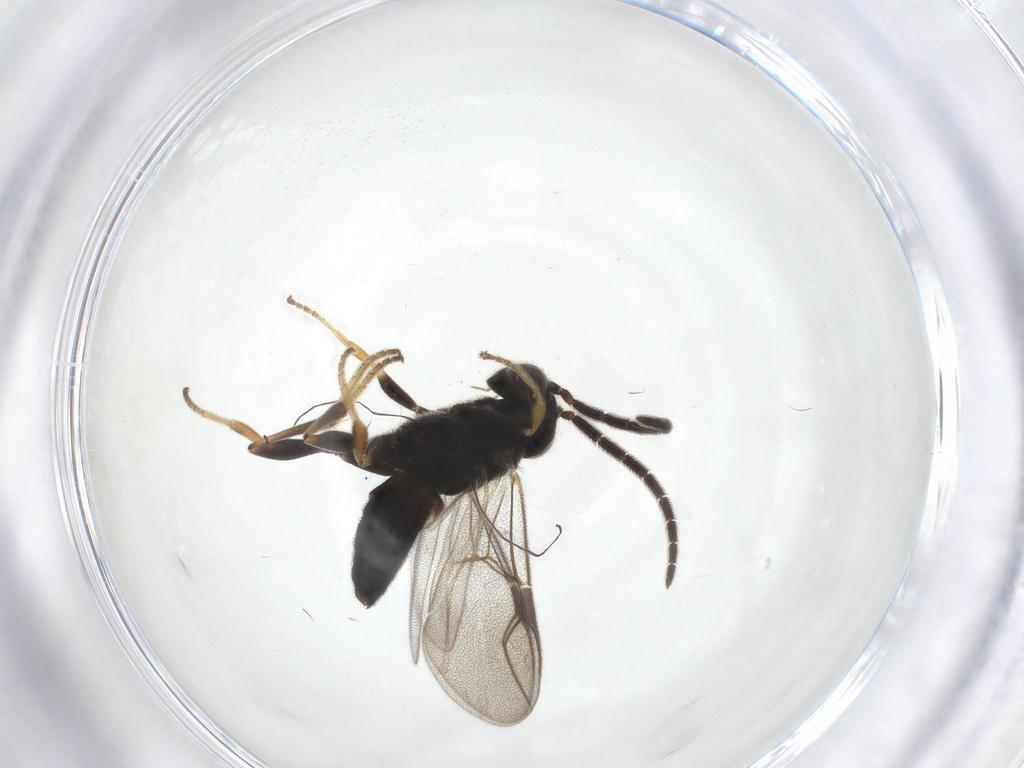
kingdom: Animalia
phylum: Arthropoda
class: Insecta
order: Hymenoptera
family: Dryinidae
